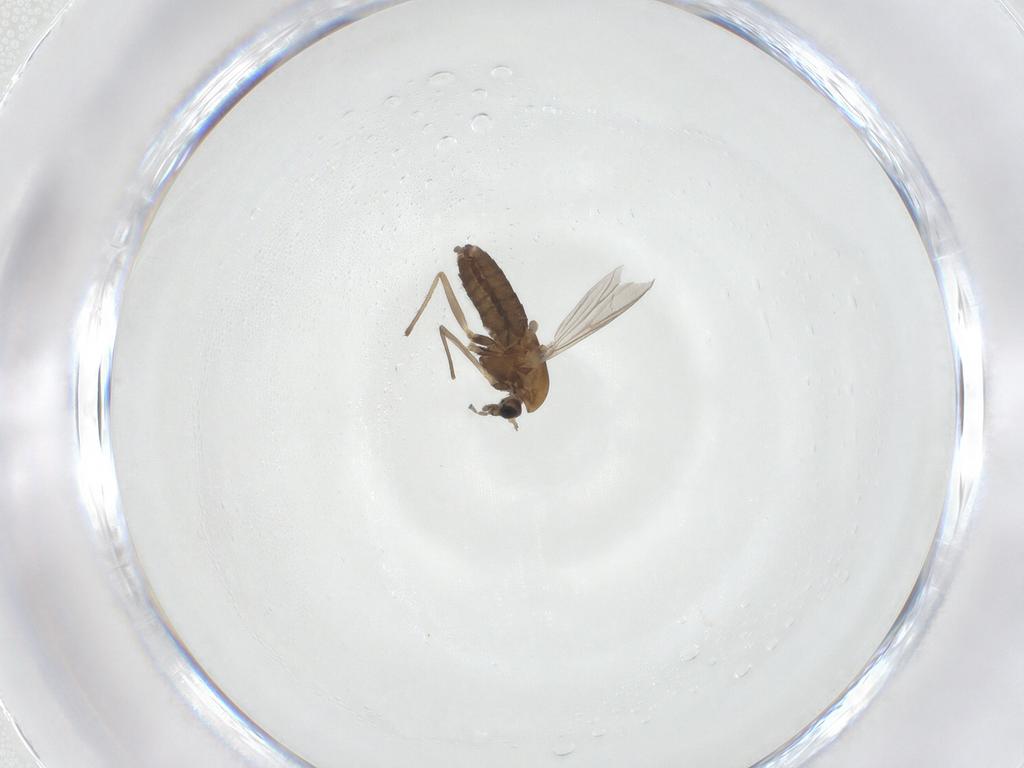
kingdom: Animalia
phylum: Arthropoda
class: Insecta
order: Diptera
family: Chironomidae
